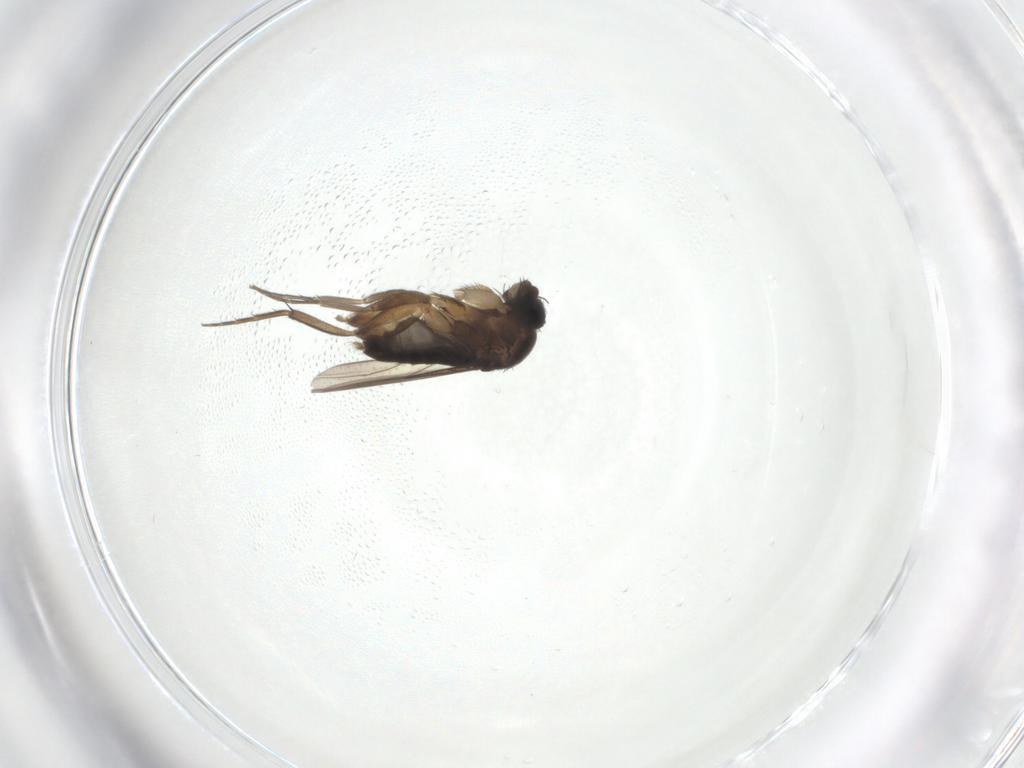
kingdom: Animalia
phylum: Arthropoda
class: Insecta
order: Diptera
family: Phoridae
